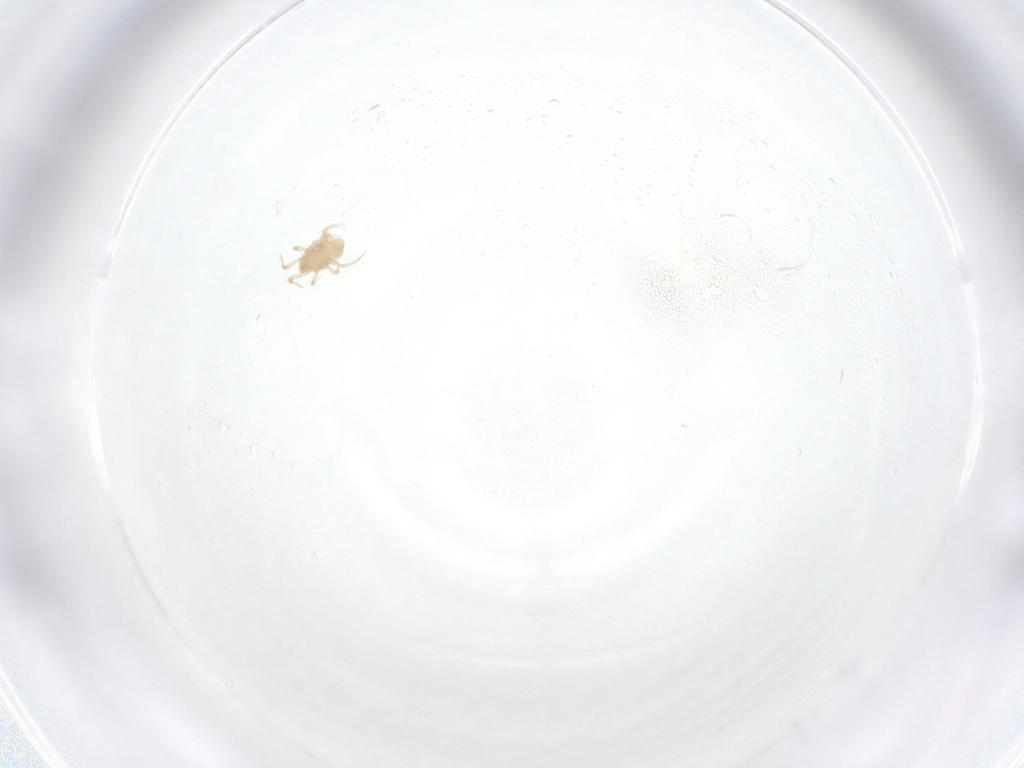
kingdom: Animalia
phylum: Arthropoda
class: Arachnida
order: Mesostigmata
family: Blattisociidae
